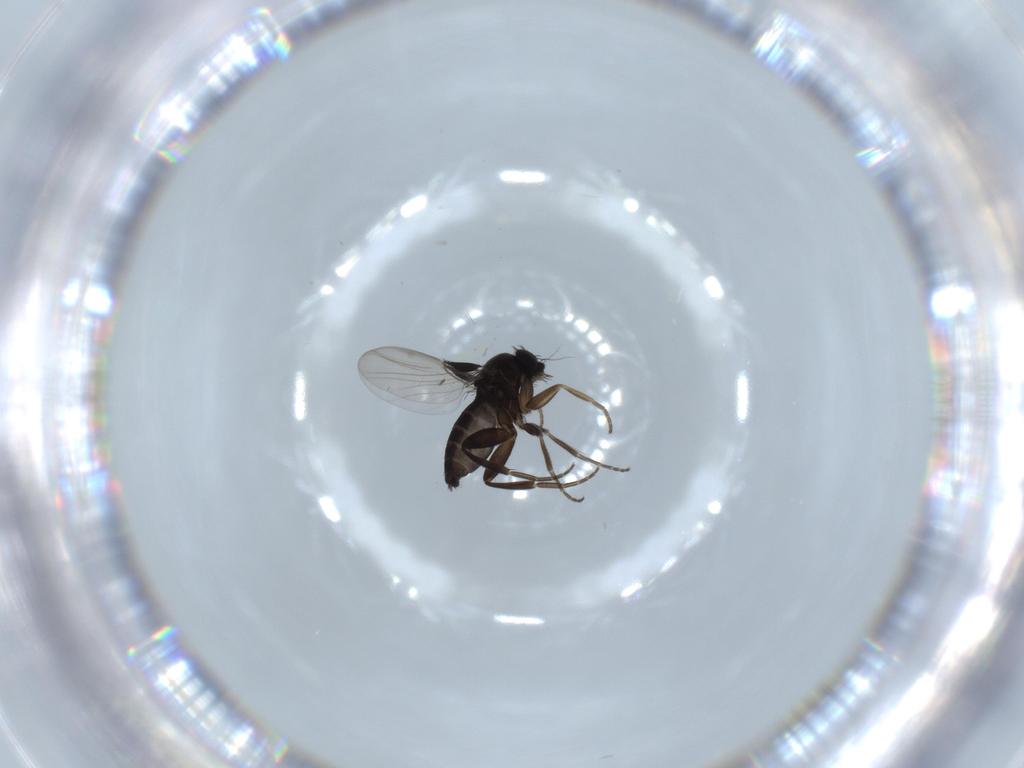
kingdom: Animalia
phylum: Arthropoda
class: Insecta
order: Diptera
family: Phoridae
